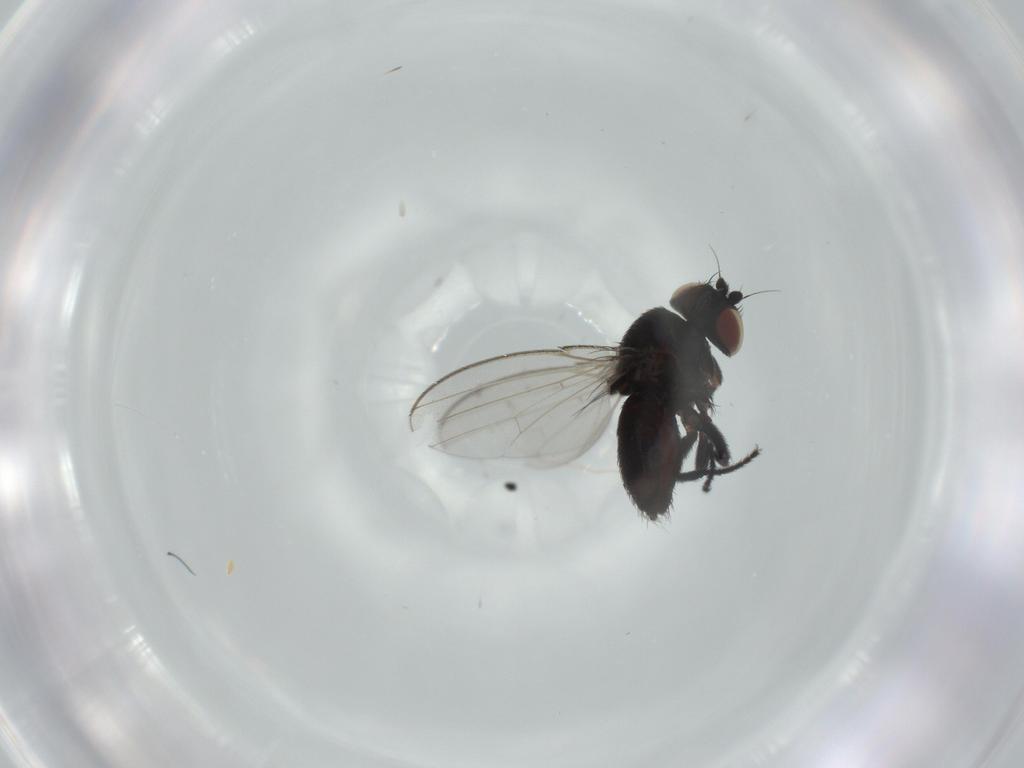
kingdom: Animalia
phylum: Arthropoda
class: Insecta
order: Diptera
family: Milichiidae
